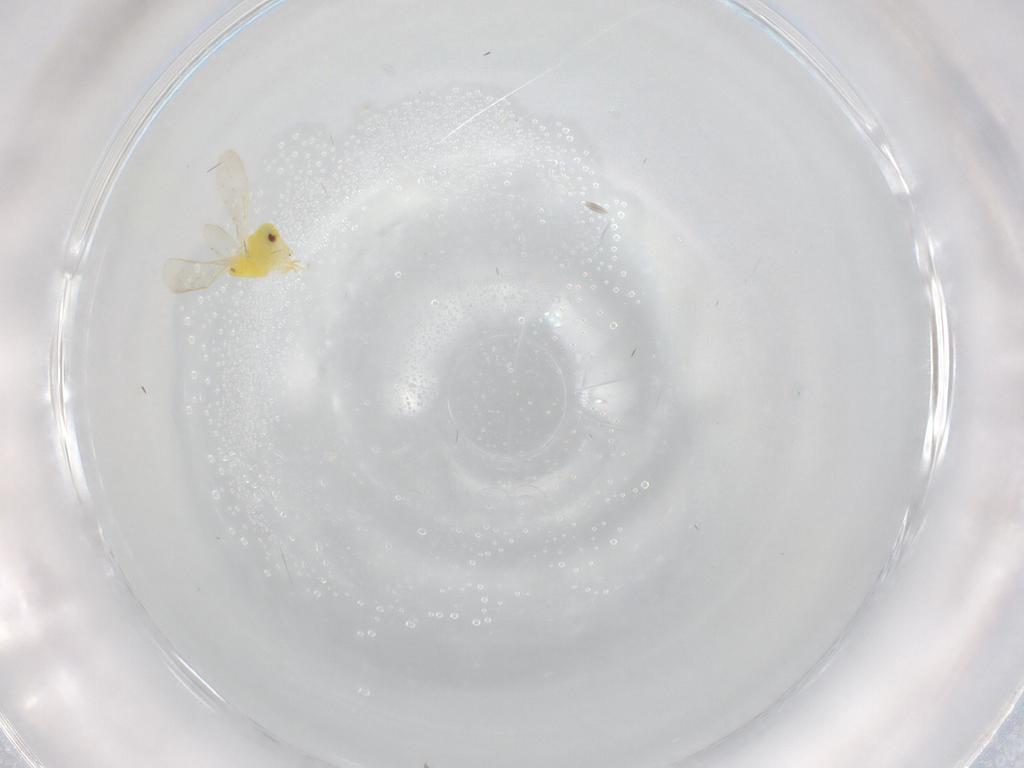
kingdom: Animalia
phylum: Arthropoda
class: Insecta
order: Hemiptera
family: Aleyrodidae
